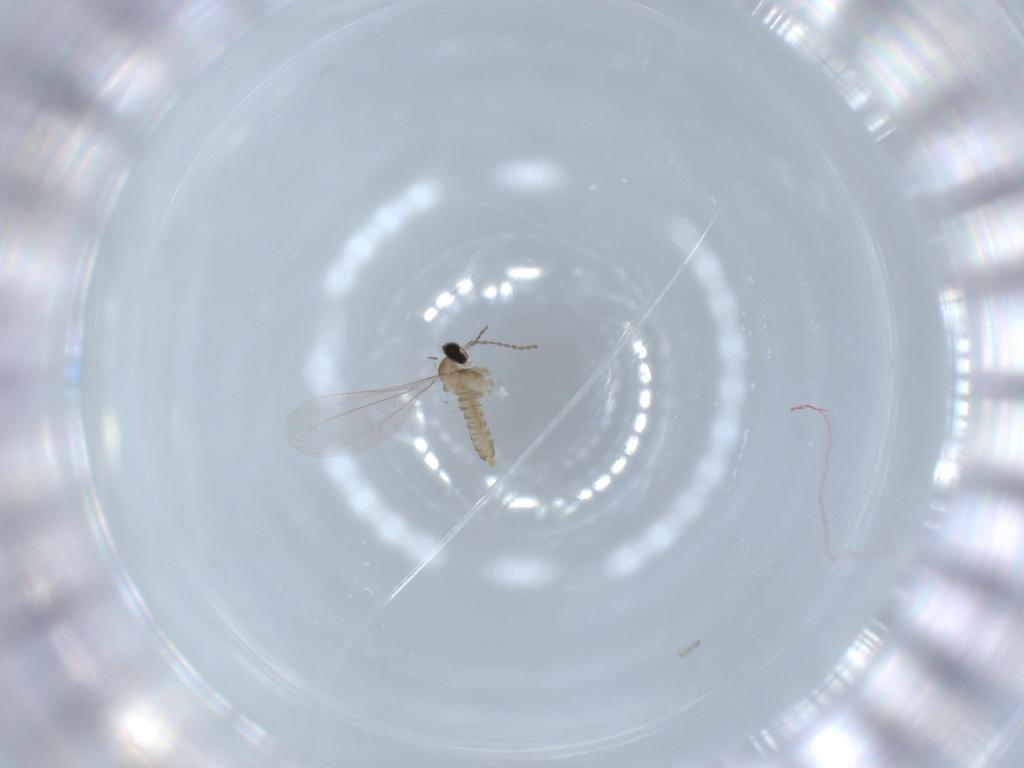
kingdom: Animalia
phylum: Arthropoda
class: Insecta
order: Diptera
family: Cecidomyiidae
